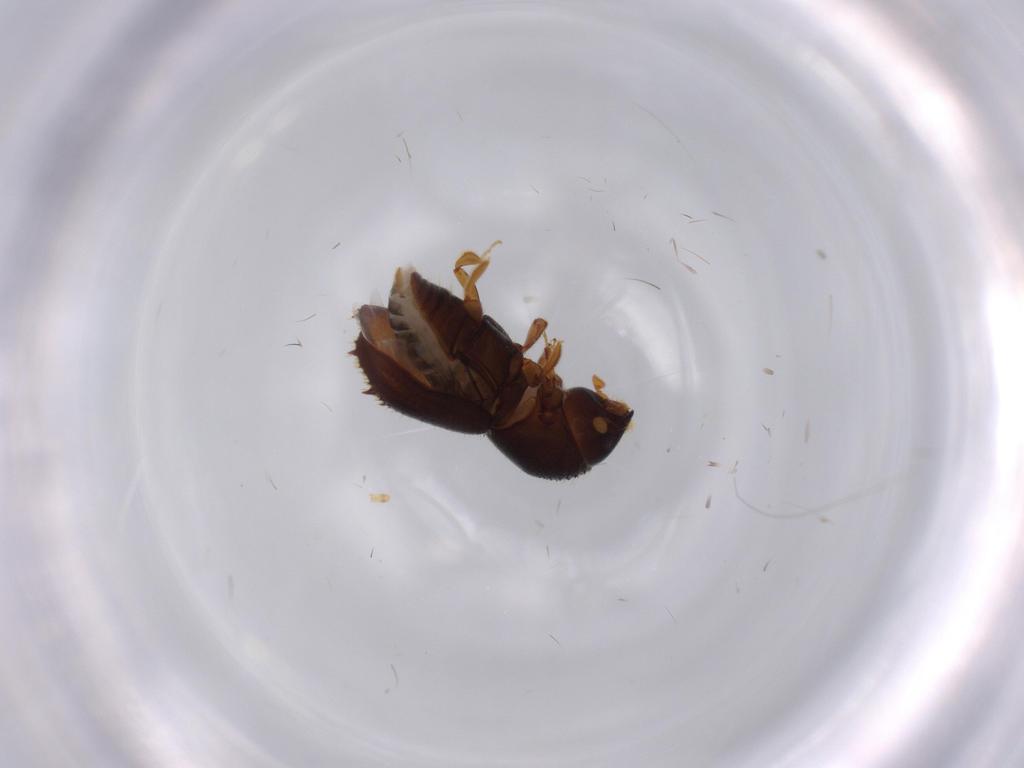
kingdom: Animalia
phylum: Arthropoda
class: Insecta
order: Coleoptera
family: Curculionidae
